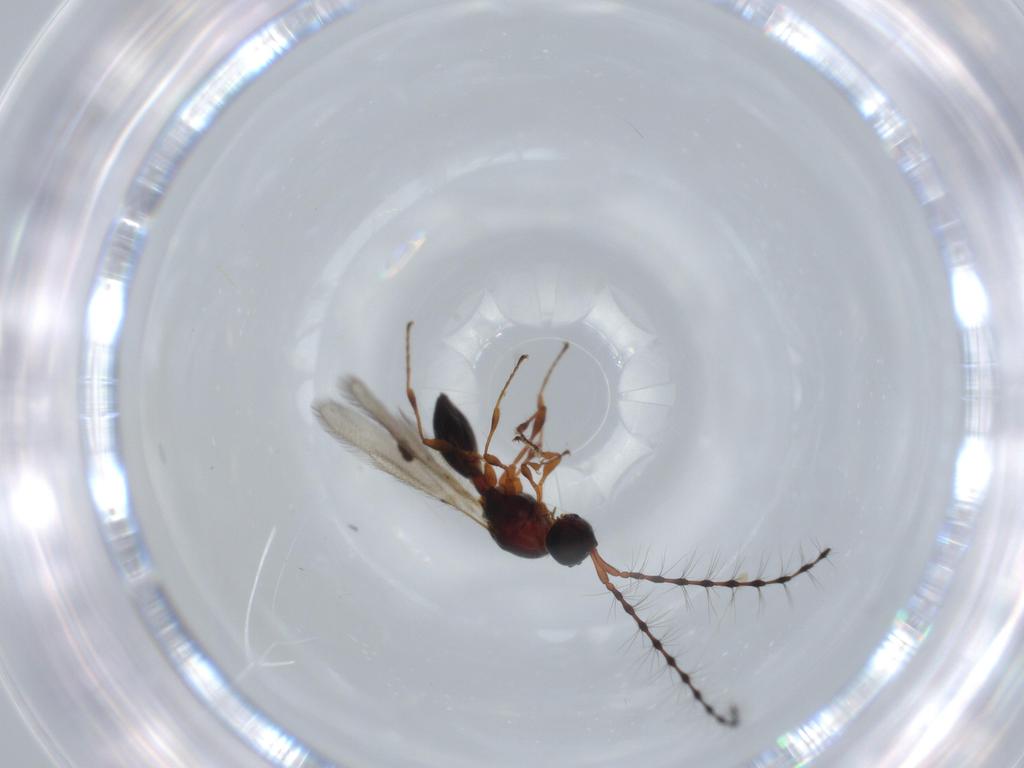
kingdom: Animalia
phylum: Arthropoda
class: Insecta
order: Hymenoptera
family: Diapriidae
